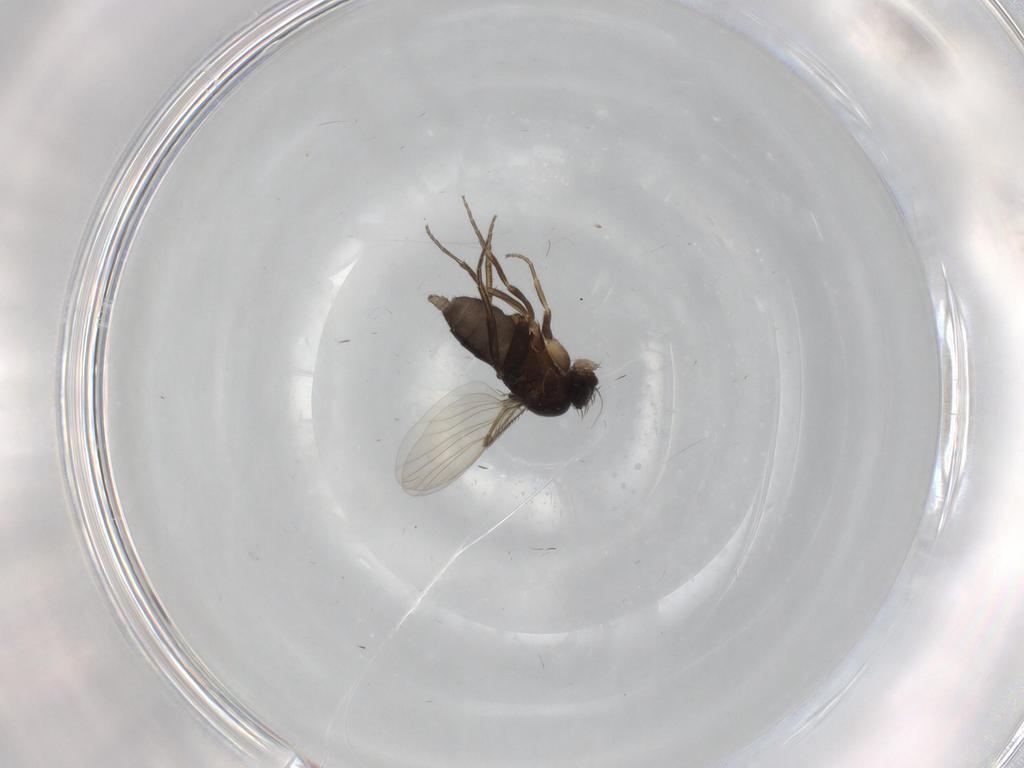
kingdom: Animalia
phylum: Arthropoda
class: Insecta
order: Diptera
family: Phoridae
